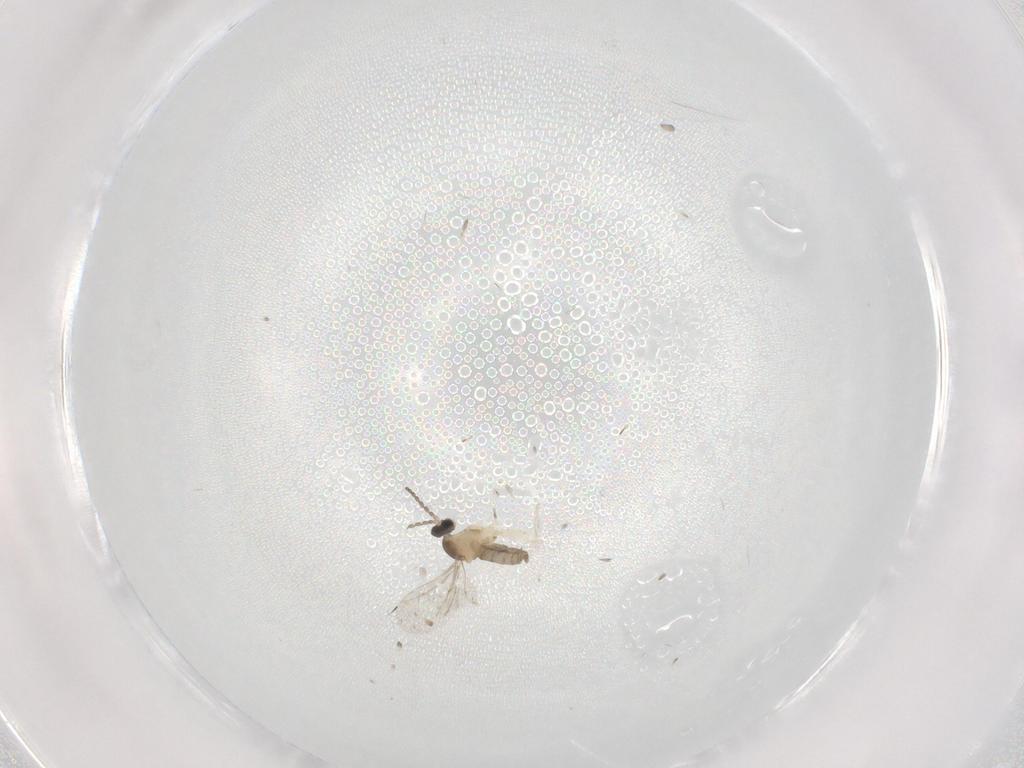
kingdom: Animalia
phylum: Arthropoda
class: Insecta
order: Diptera
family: Cecidomyiidae
